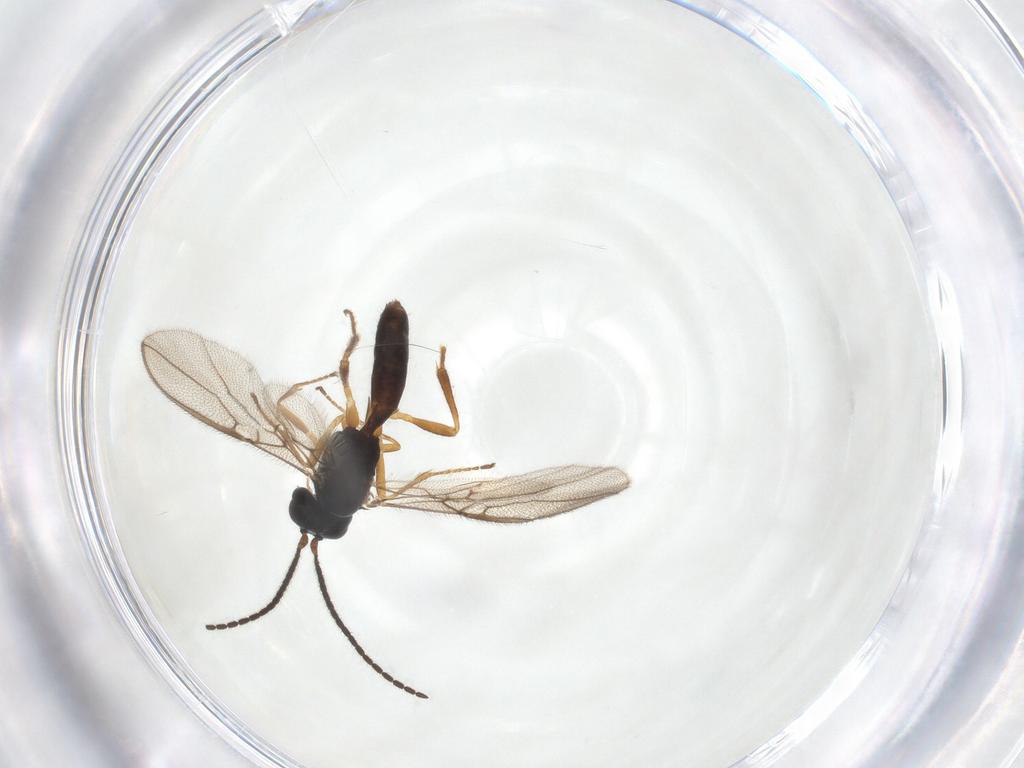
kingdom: Animalia
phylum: Arthropoda
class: Insecta
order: Hymenoptera
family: Braconidae
